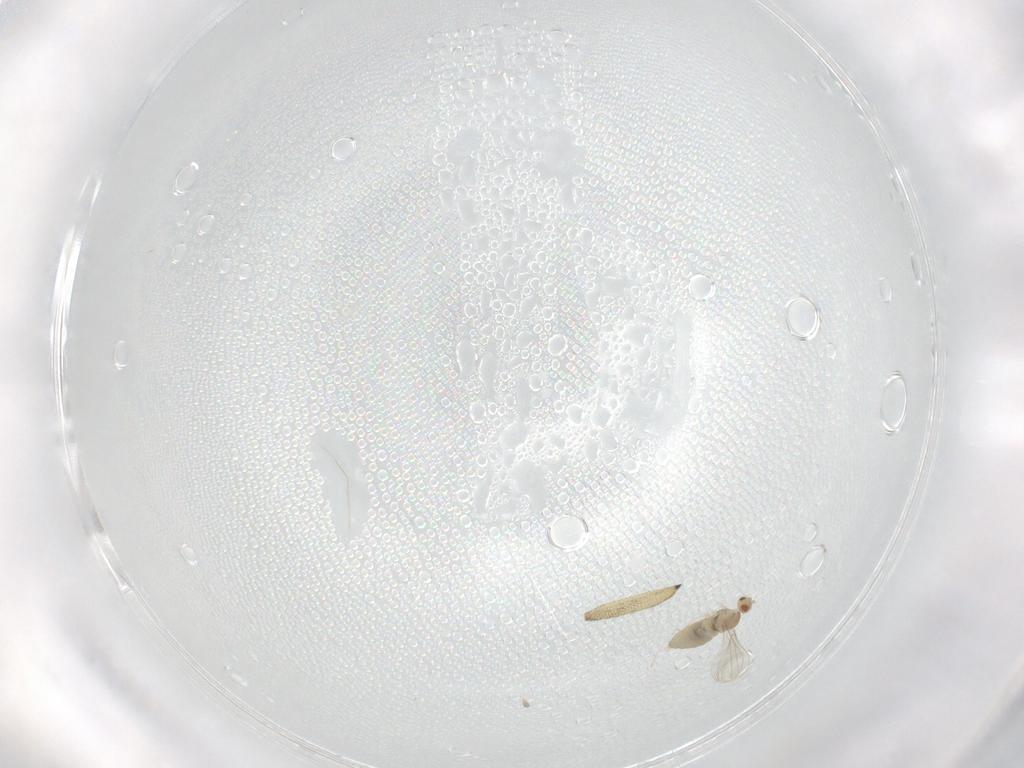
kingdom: Animalia
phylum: Arthropoda
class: Insecta
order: Diptera
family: Cecidomyiidae
